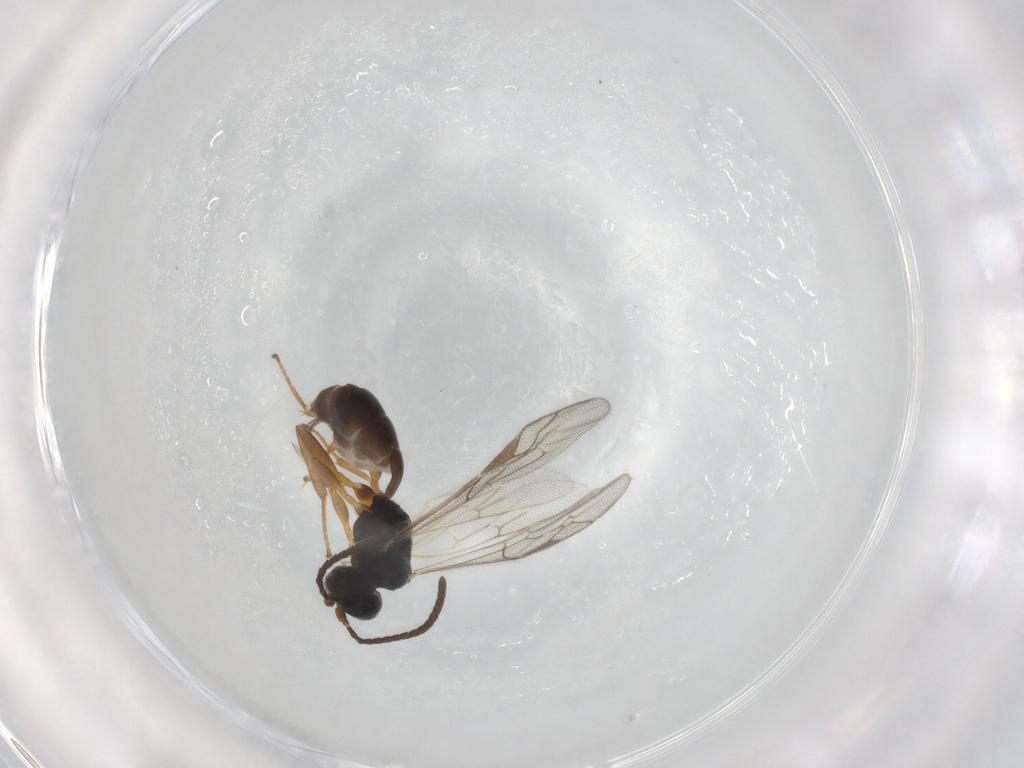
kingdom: Animalia
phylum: Arthropoda
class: Insecta
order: Hymenoptera
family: Ichneumonidae
